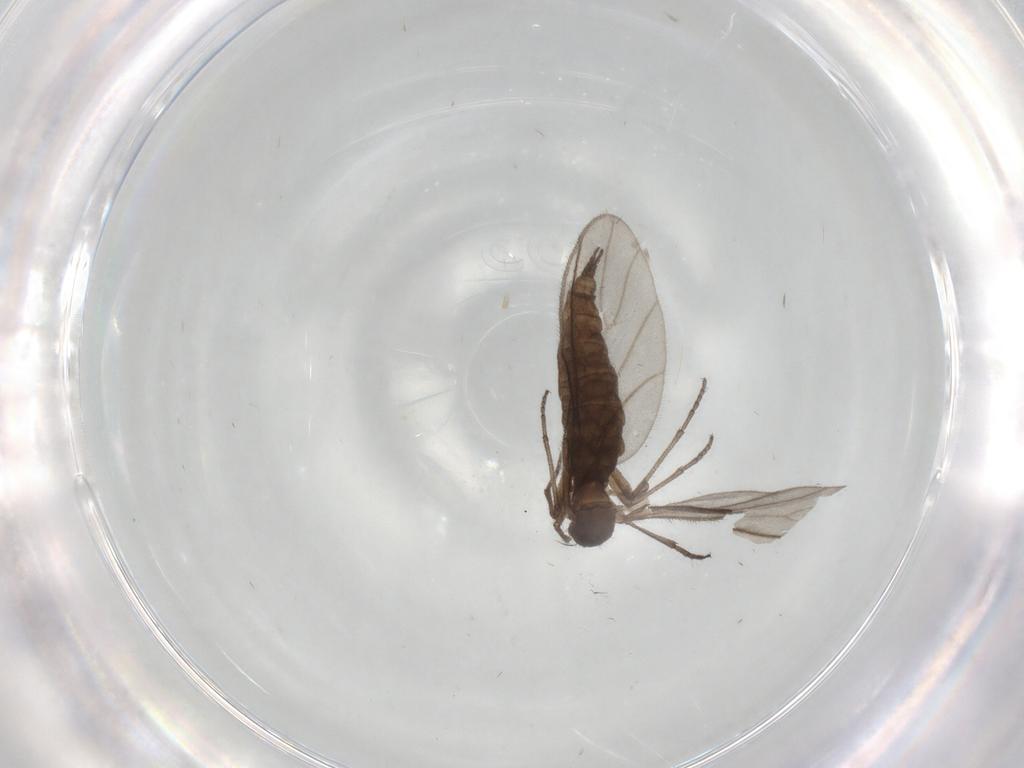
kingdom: Animalia
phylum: Arthropoda
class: Insecta
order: Diptera
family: Sciaridae
